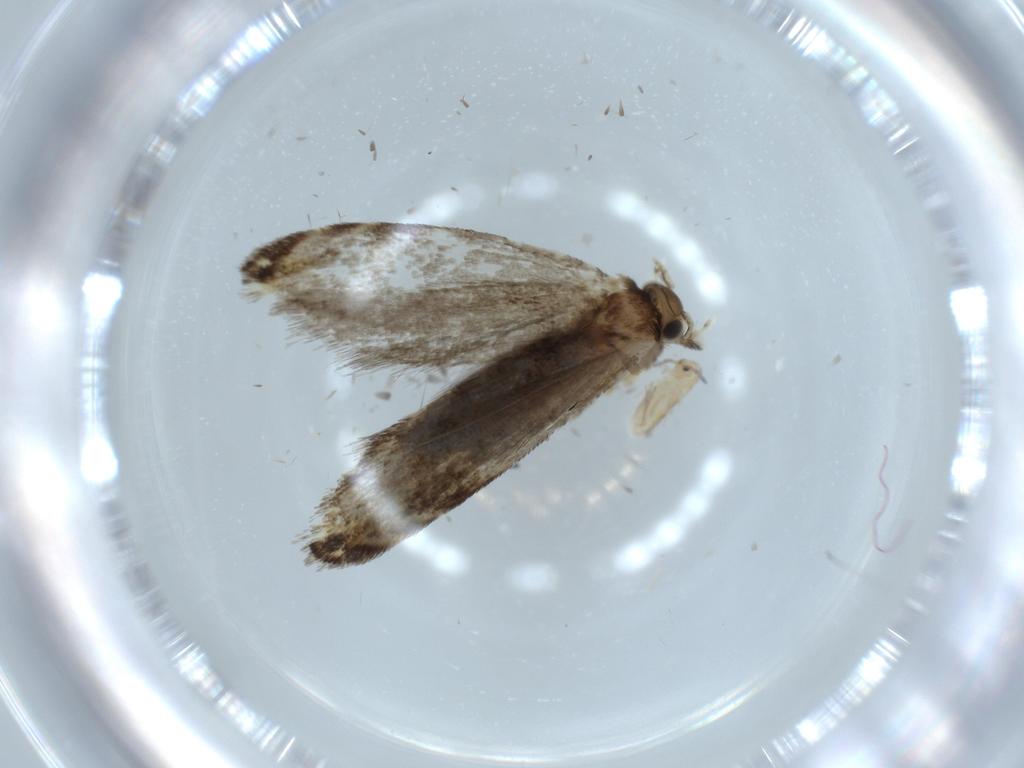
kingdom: Animalia
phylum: Arthropoda
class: Insecta
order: Lepidoptera
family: Tineidae
